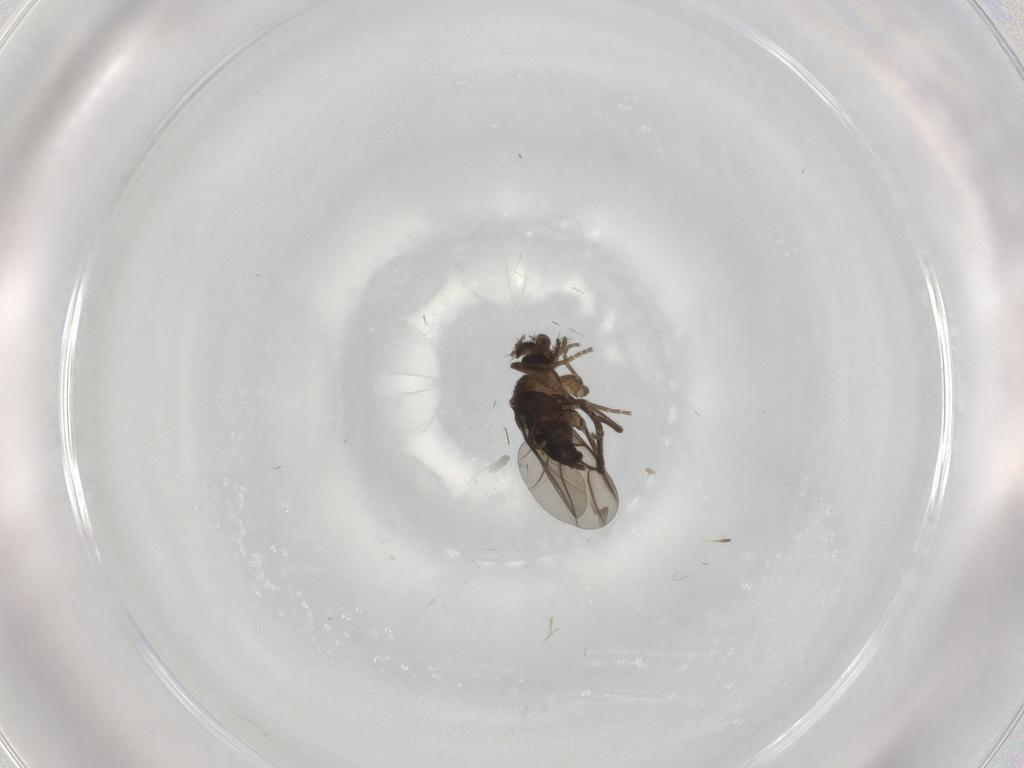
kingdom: Animalia
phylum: Arthropoda
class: Insecta
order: Diptera
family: Phoridae
